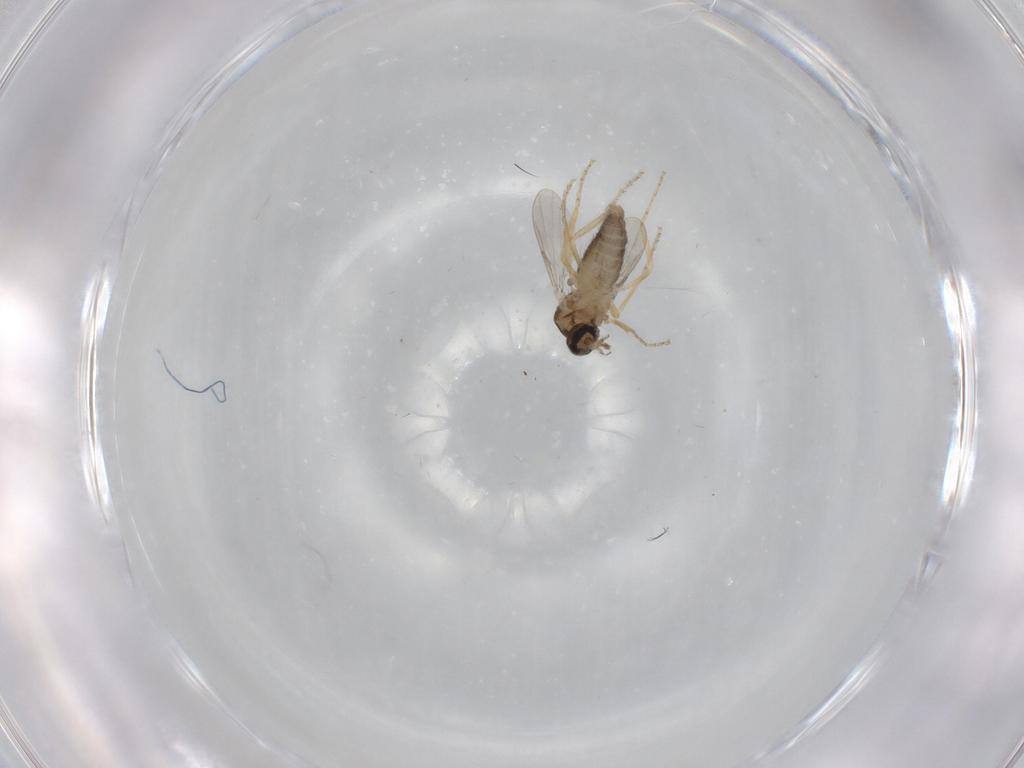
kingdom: Animalia
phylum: Arthropoda
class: Insecta
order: Diptera
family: Ceratopogonidae
